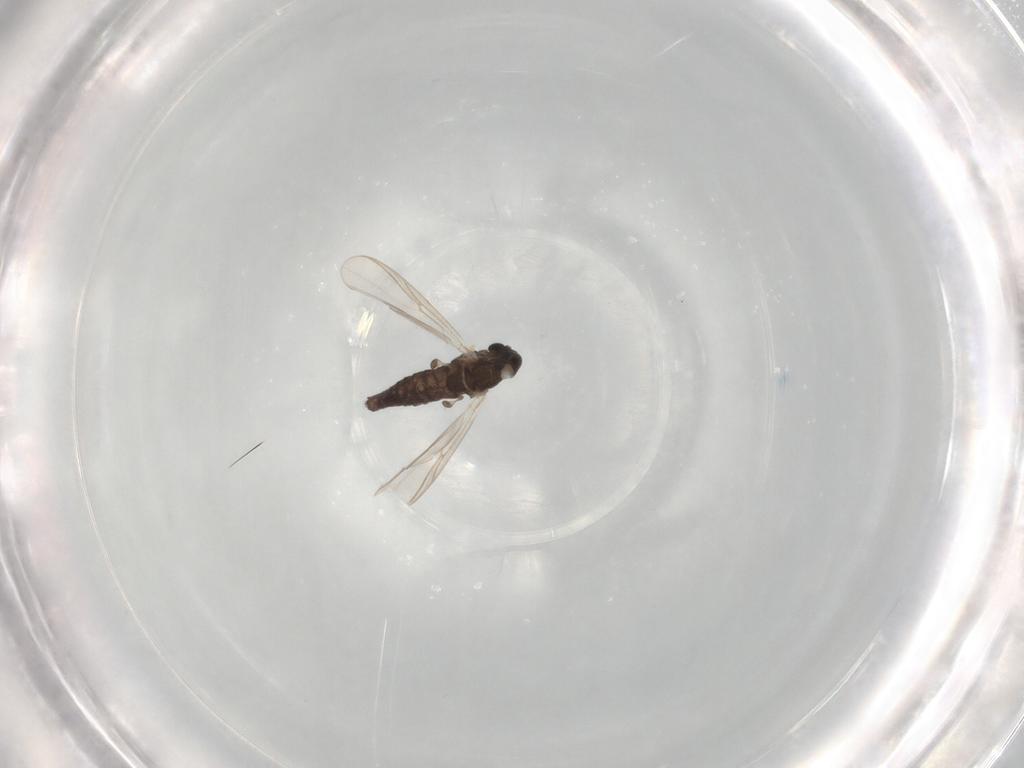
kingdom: Animalia
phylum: Arthropoda
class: Insecta
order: Diptera
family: Chironomidae
